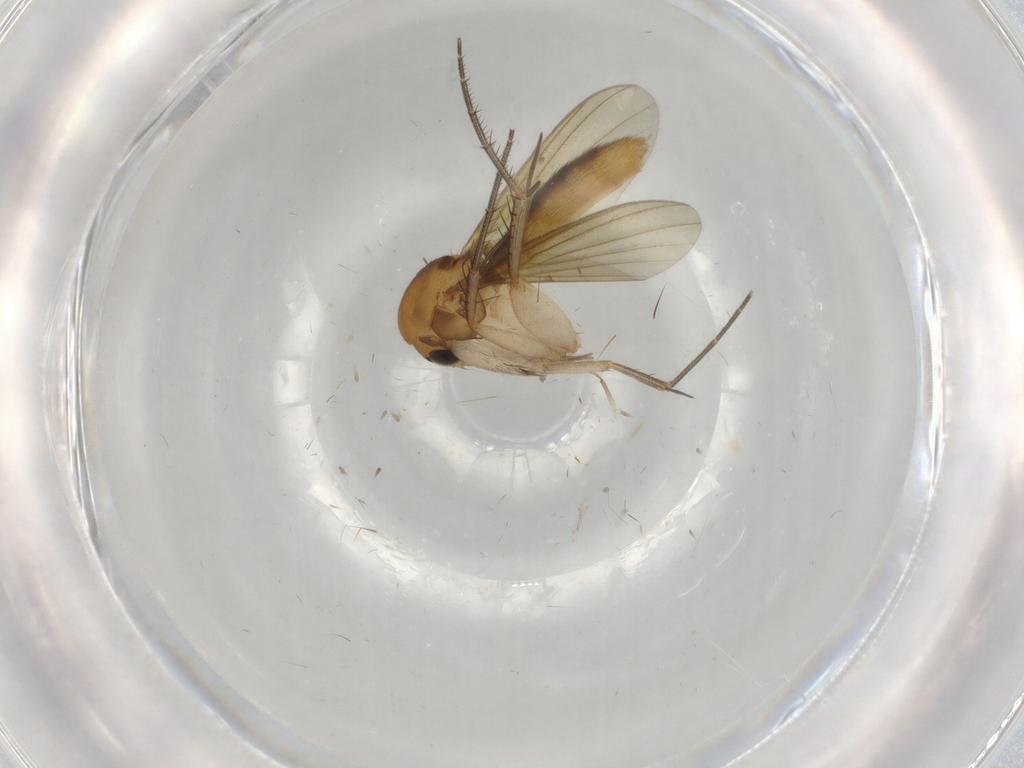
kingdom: Animalia
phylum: Arthropoda
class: Insecta
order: Diptera
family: Mycetophilidae
